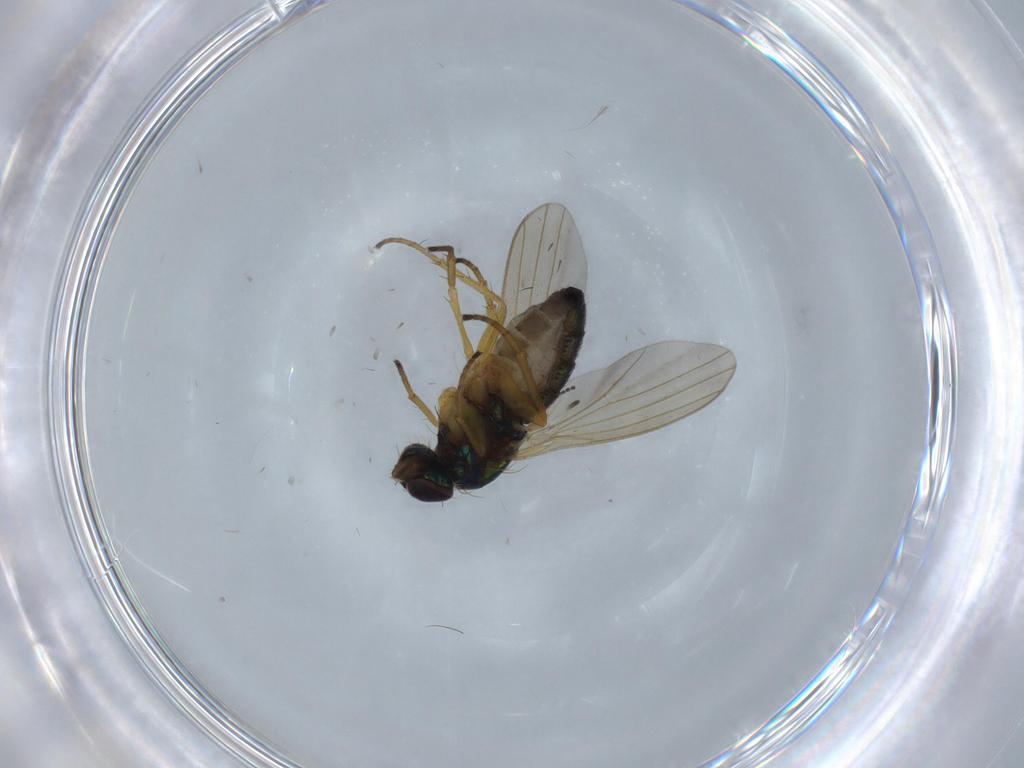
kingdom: Animalia
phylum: Arthropoda
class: Insecta
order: Diptera
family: Dolichopodidae
